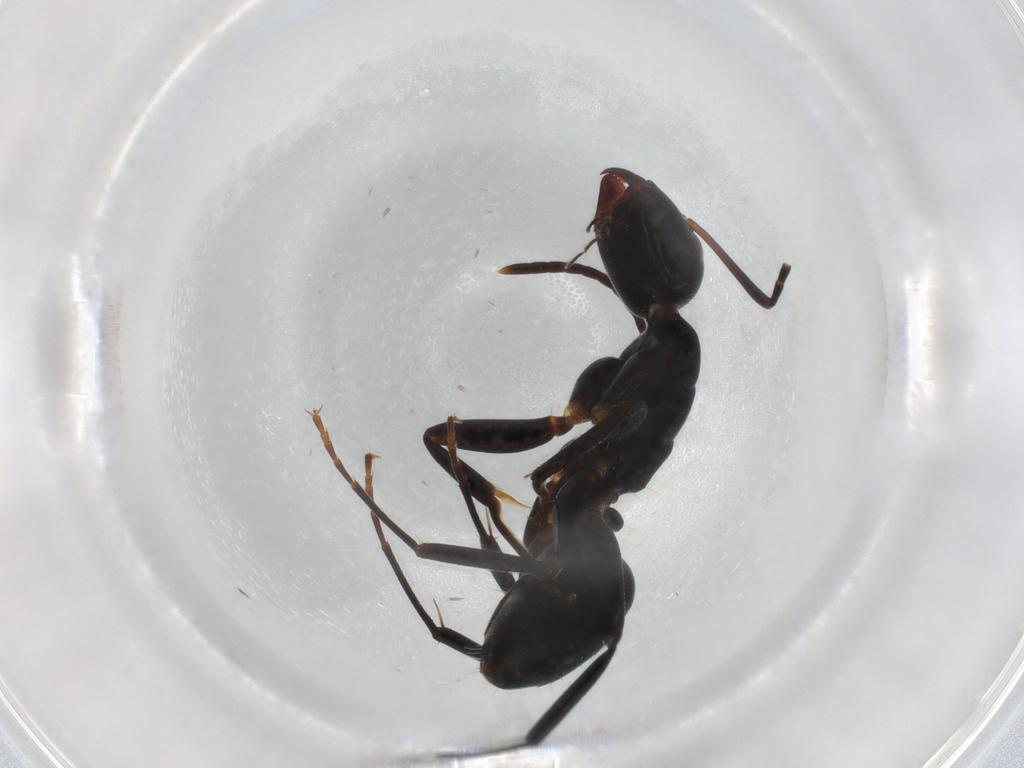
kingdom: Animalia
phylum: Arthropoda
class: Insecta
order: Hymenoptera
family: Formicidae
